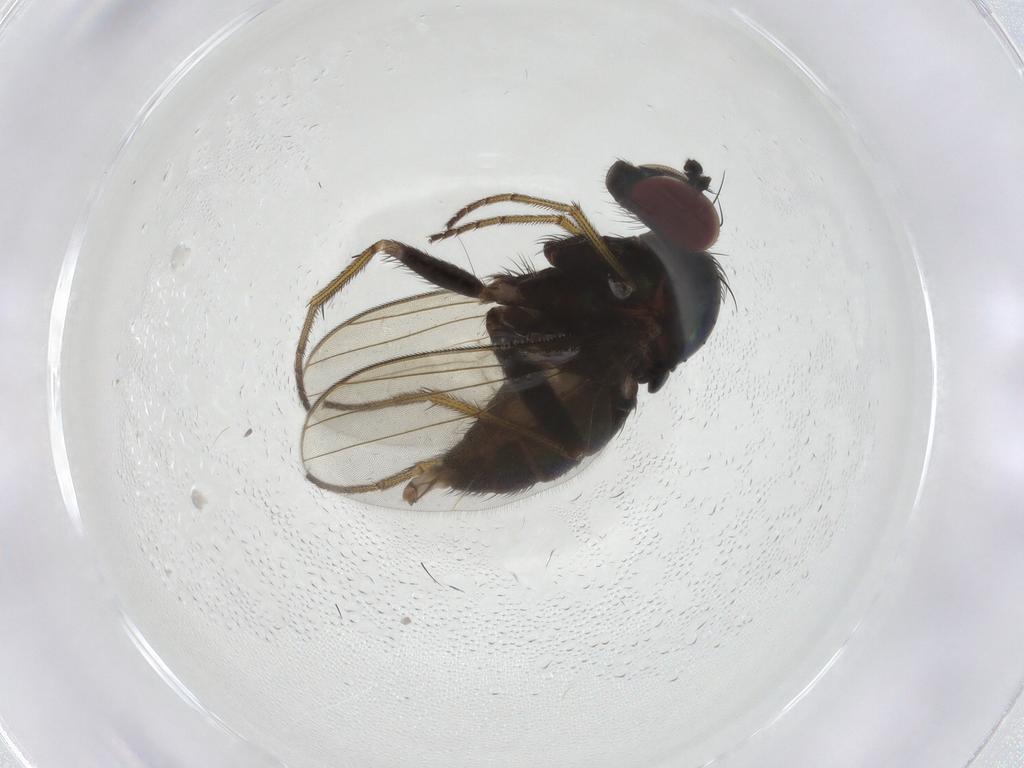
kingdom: Animalia
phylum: Arthropoda
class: Insecta
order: Diptera
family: Dolichopodidae
